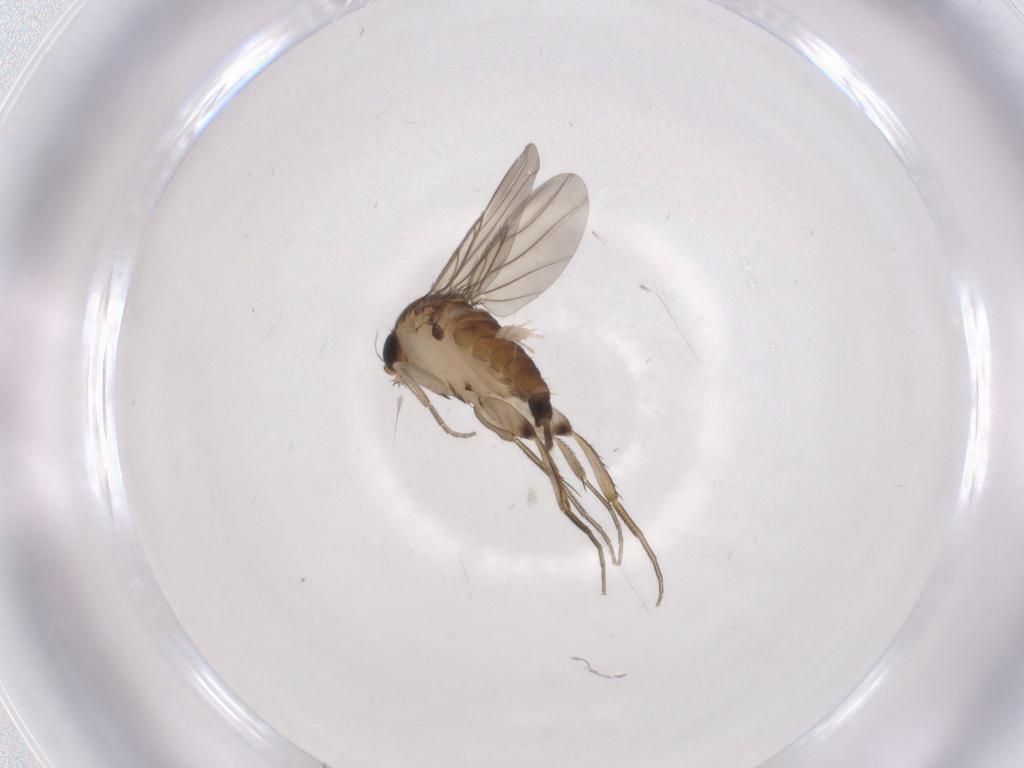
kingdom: Animalia
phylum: Arthropoda
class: Insecta
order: Diptera
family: Phoridae
